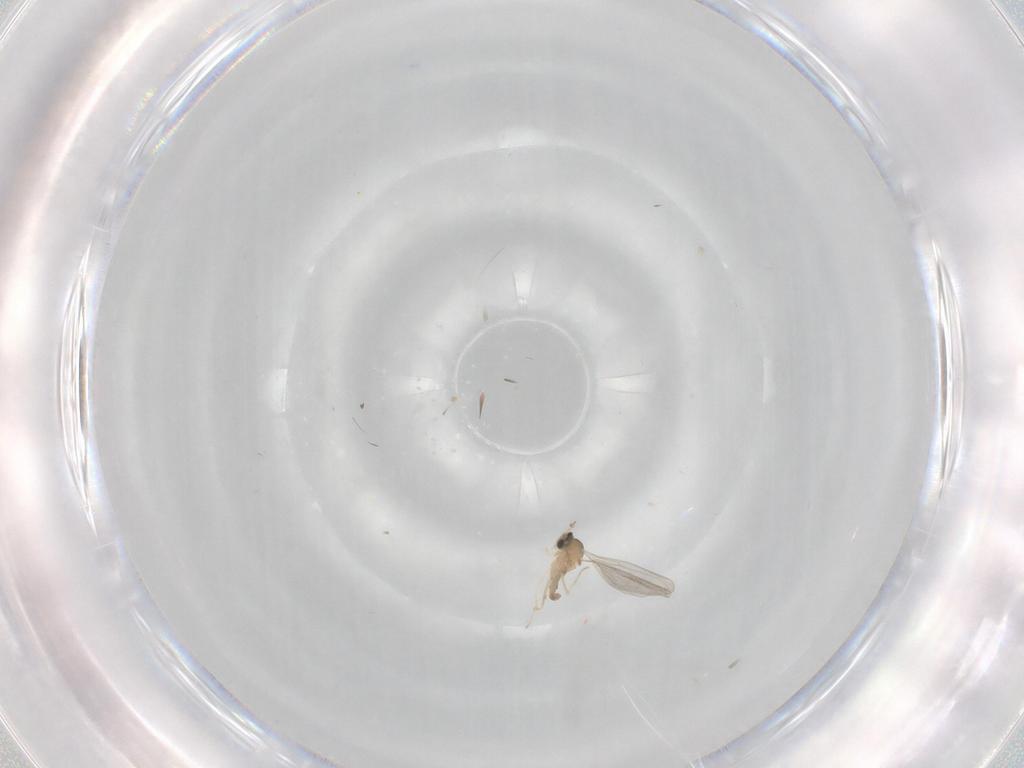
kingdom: Animalia
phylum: Arthropoda
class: Insecta
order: Diptera
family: Cecidomyiidae
